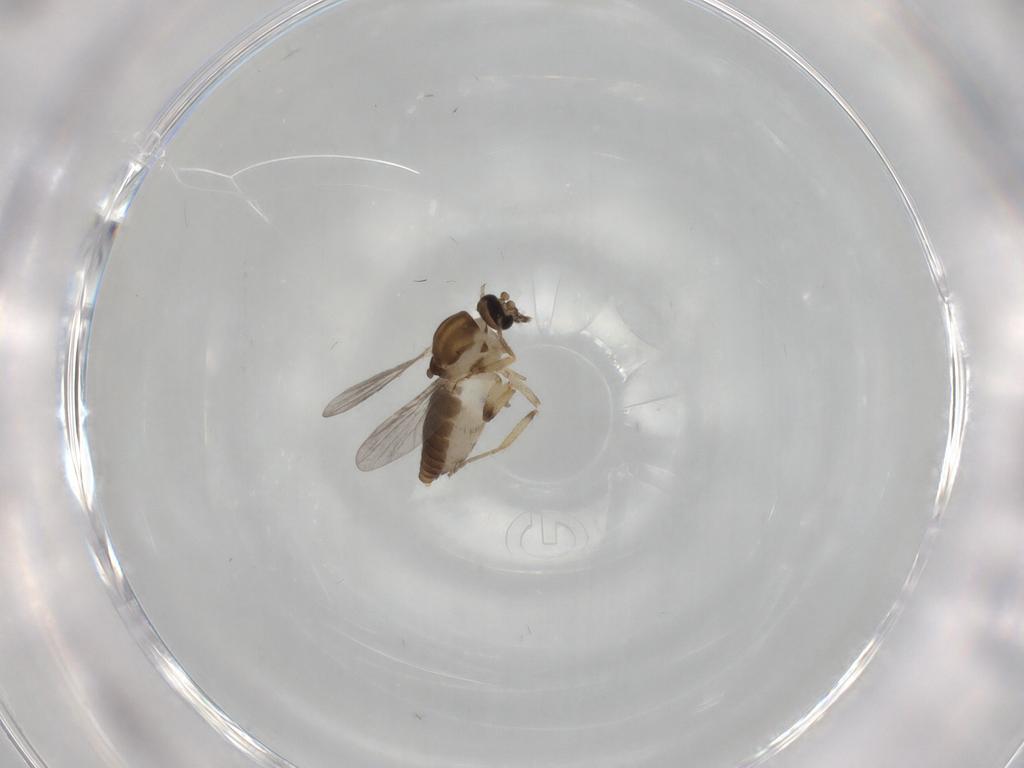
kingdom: Animalia
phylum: Arthropoda
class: Insecta
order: Diptera
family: Ceratopogonidae
